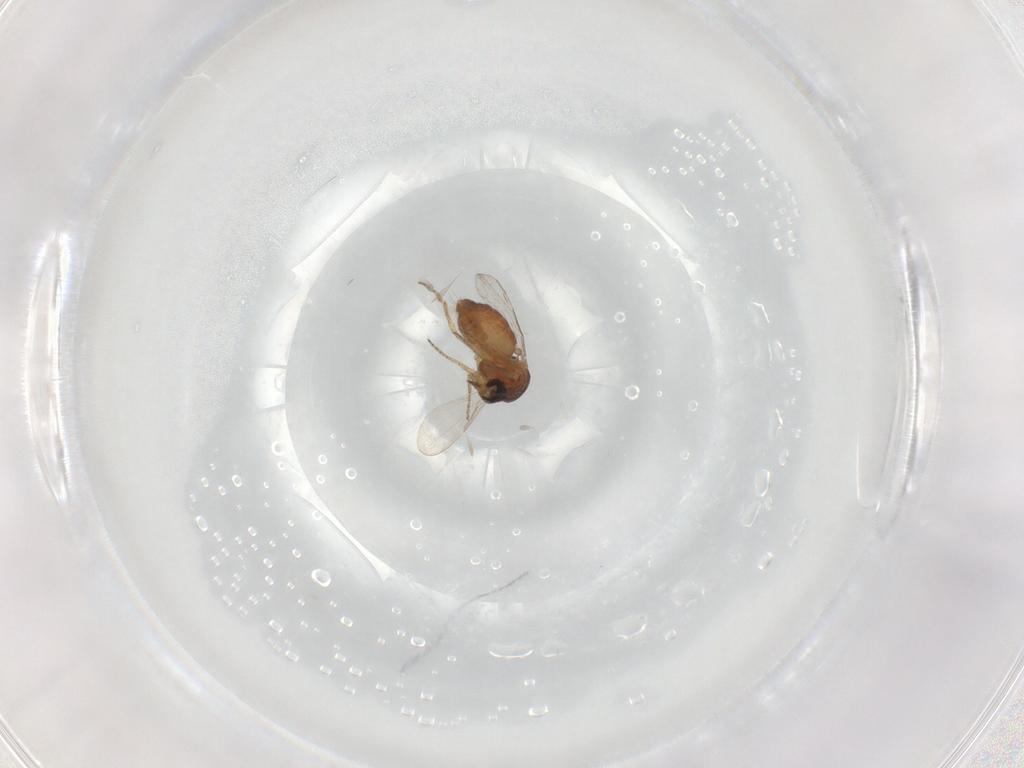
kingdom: Animalia
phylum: Arthropoda
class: Insecta
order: Diptera
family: Ceratopogonidae
